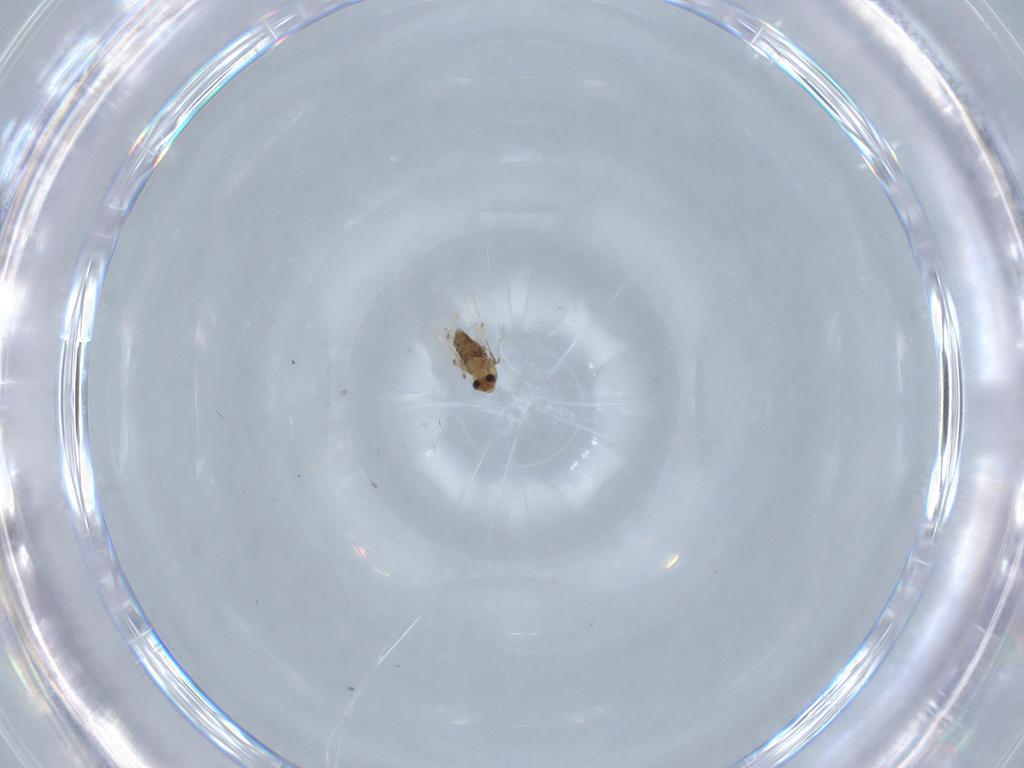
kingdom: Animalia
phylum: Arthropoda
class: Insecta
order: Diptera
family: Chironomidae
